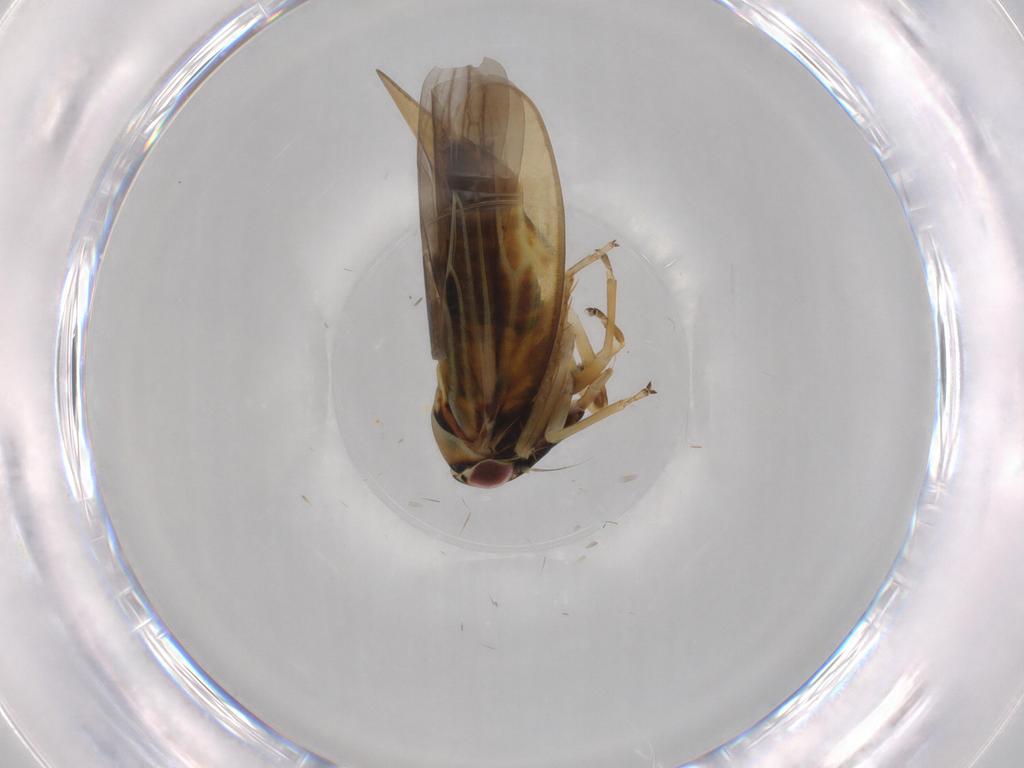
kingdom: Animalia
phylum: Arthropoda
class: Insecta
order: Hemiptera
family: Cicadellidae
